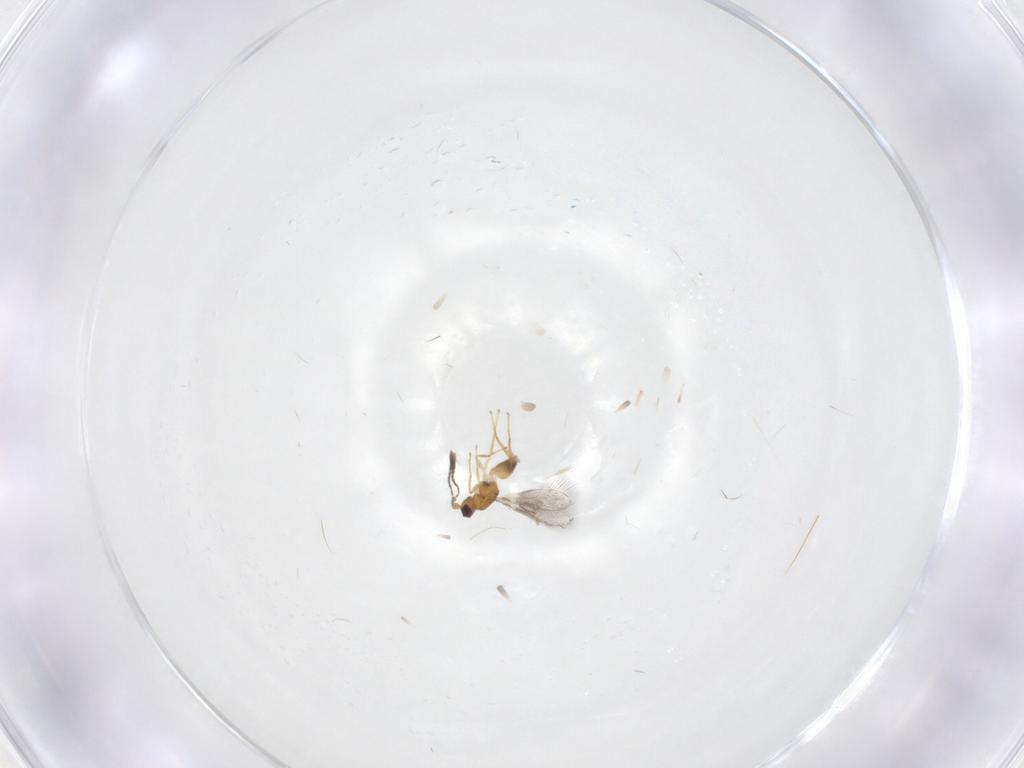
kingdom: Animalia
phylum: Arthropoda
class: Insecta
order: Hymenoptera
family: Mymaridae
